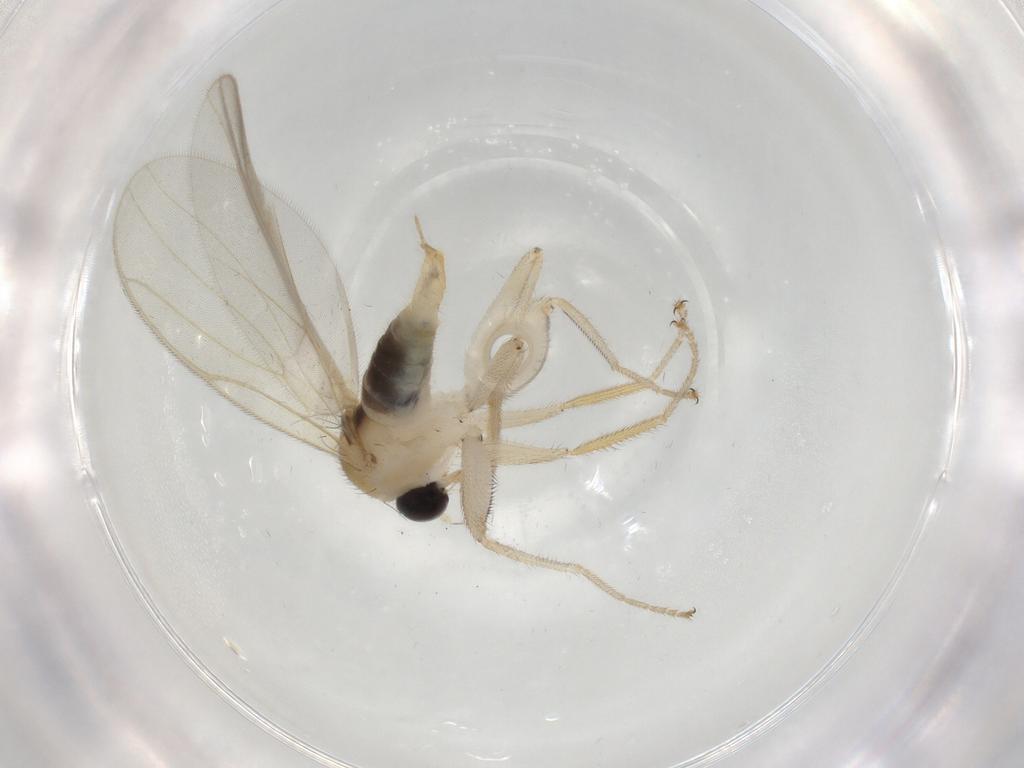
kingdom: Animalia
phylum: Arthropoda
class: Insecta
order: Diptera
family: Hybotidae
